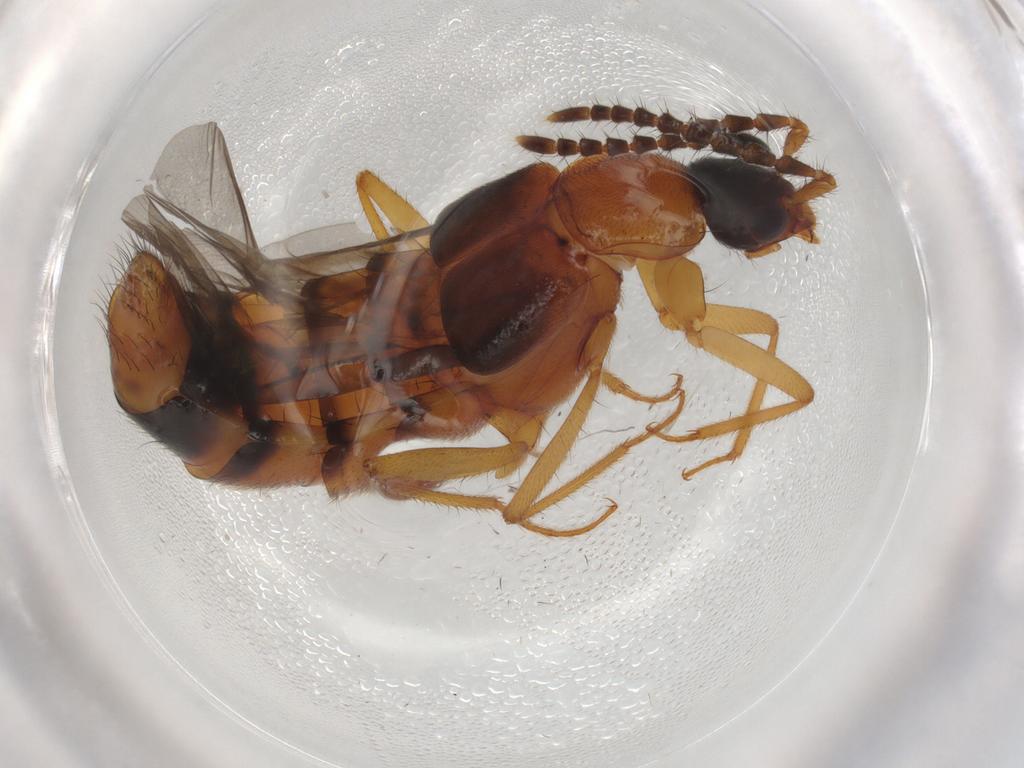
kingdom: Animalia
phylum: Arthropoda
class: Insecta
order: Coleoptera
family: Staphylinidae
